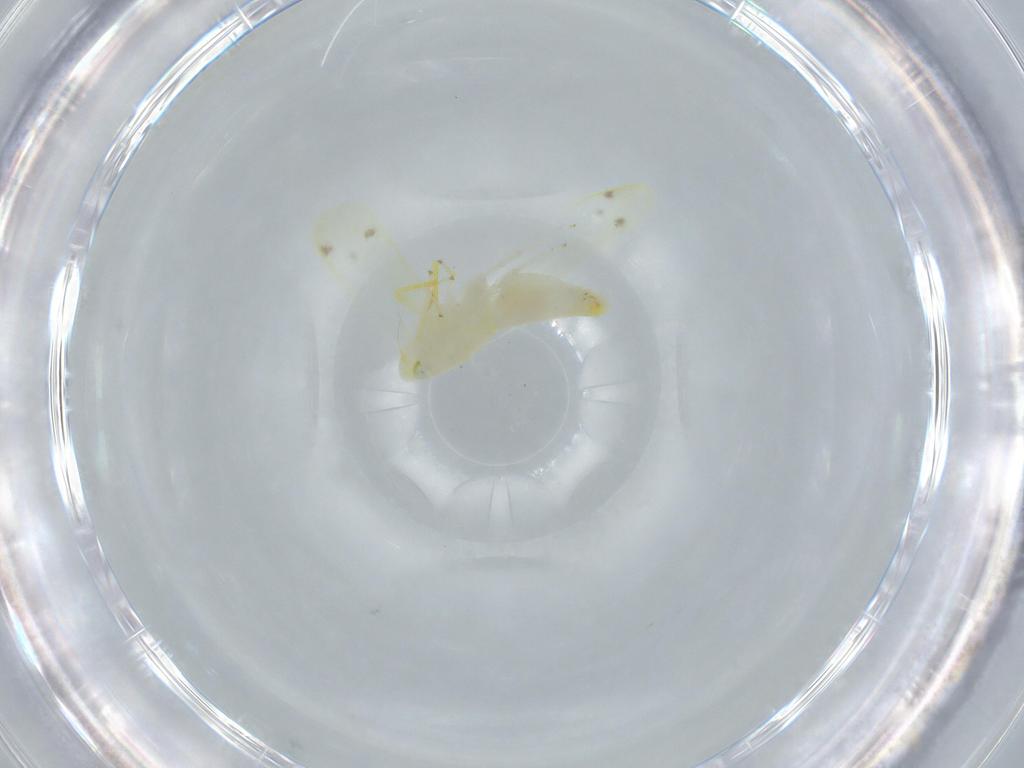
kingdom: Animalia
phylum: Arthropoda
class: Insecta
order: Hemiptera
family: Cicadellidae
